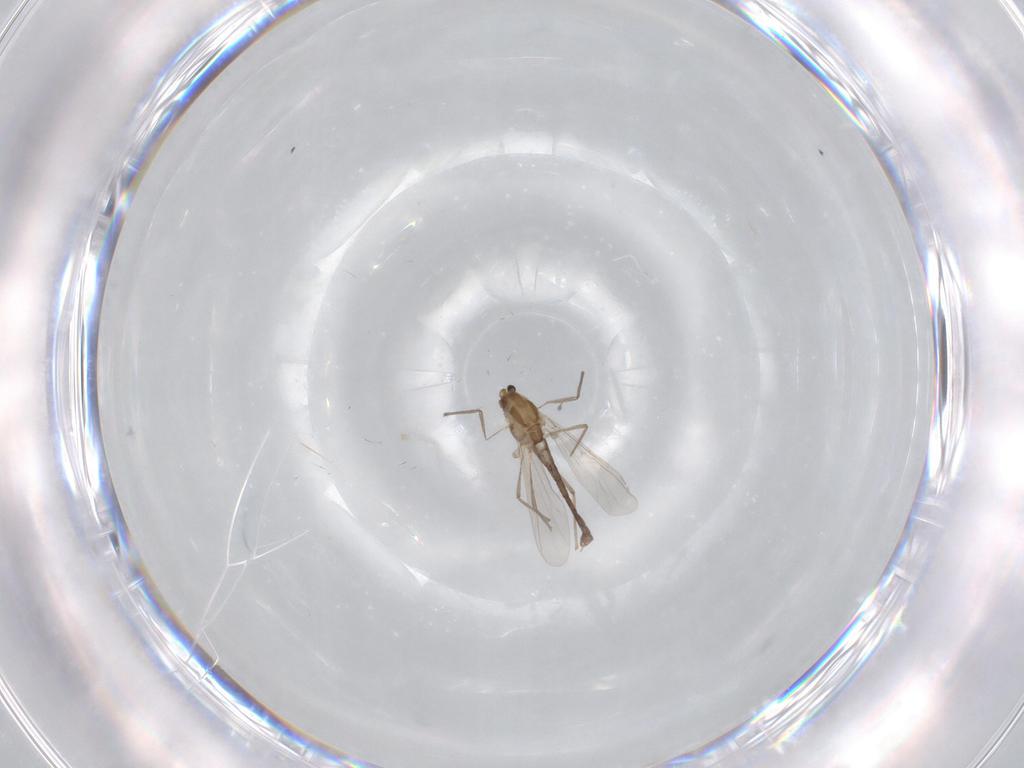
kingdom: Animalia
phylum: Arthropoda
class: Insecta
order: Diptera
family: Chironomidae
